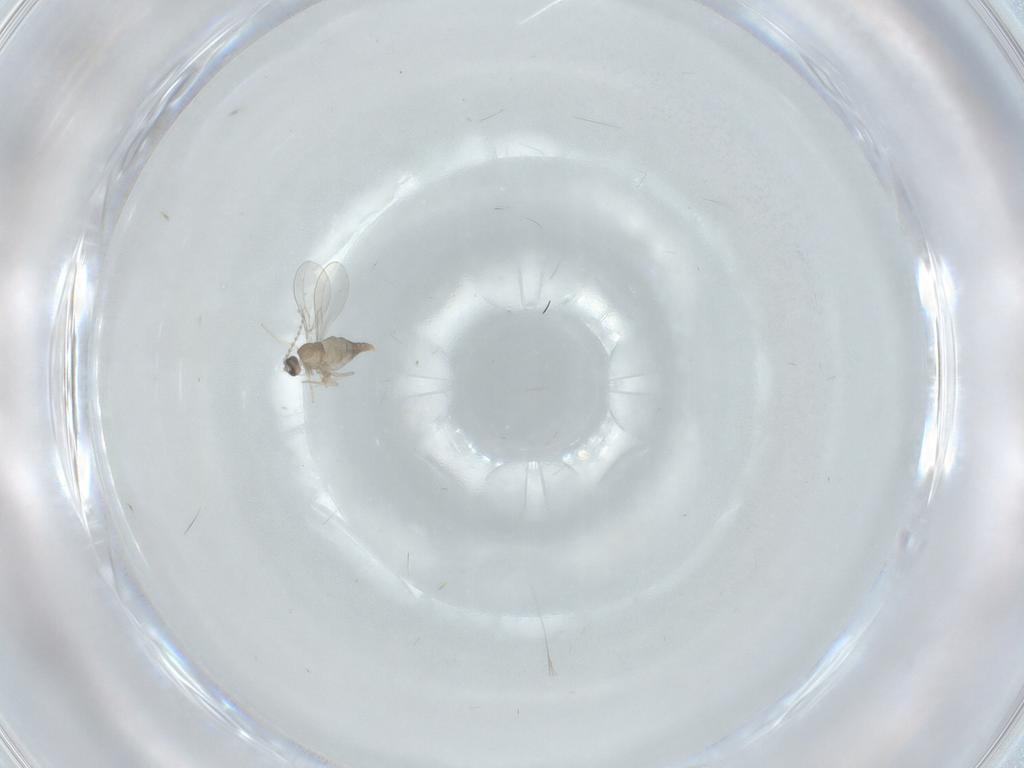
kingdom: Animalia
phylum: Arthropoda
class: Insecta
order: Diptera
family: Cecidomyiidae
